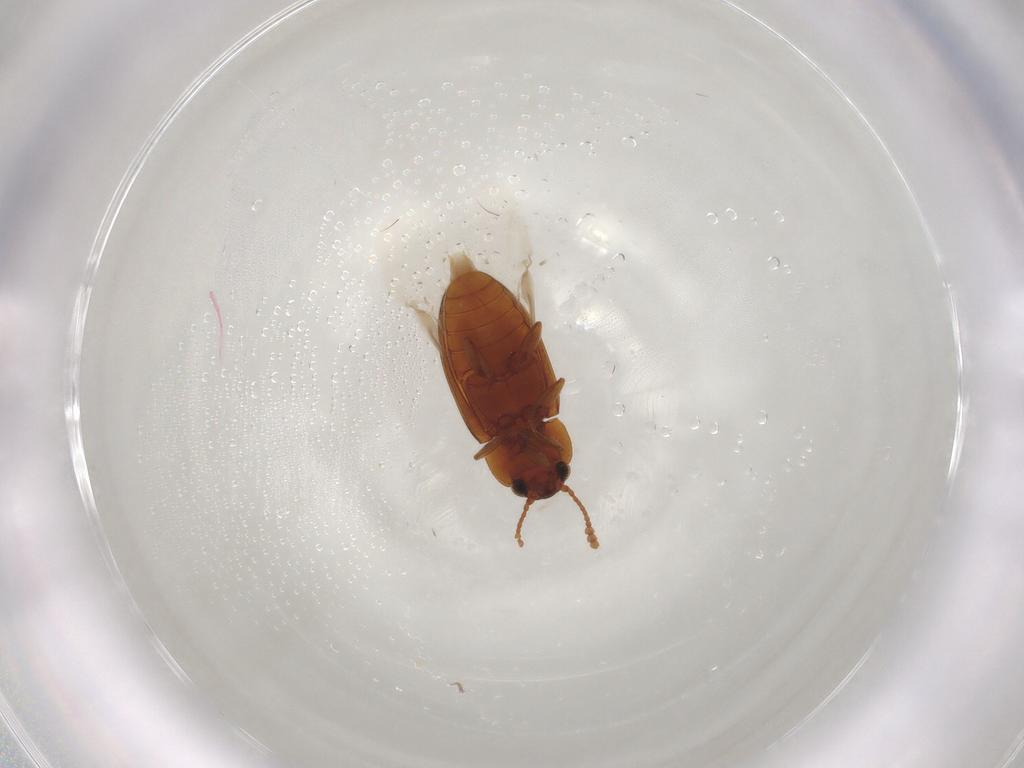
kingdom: Animalia
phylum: Arthropoda
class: Insecta
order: Coleoptera
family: Erotylidae
